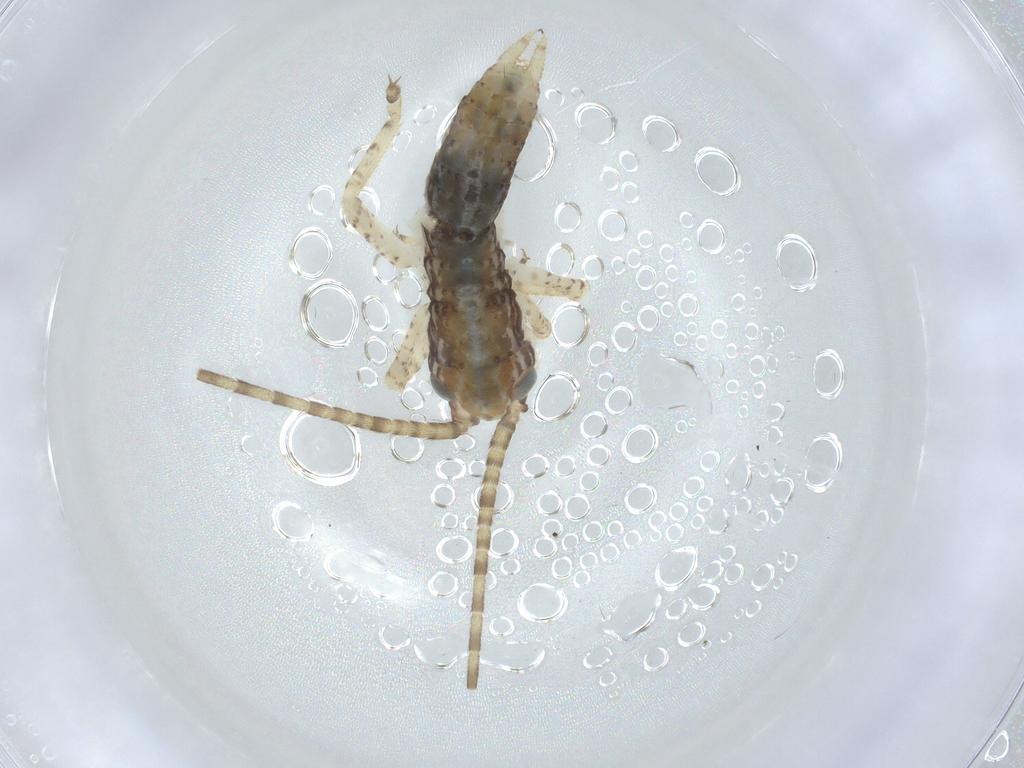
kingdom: Animalia
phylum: Arthropoda
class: Insecta
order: Diptera
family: Chironomidae
